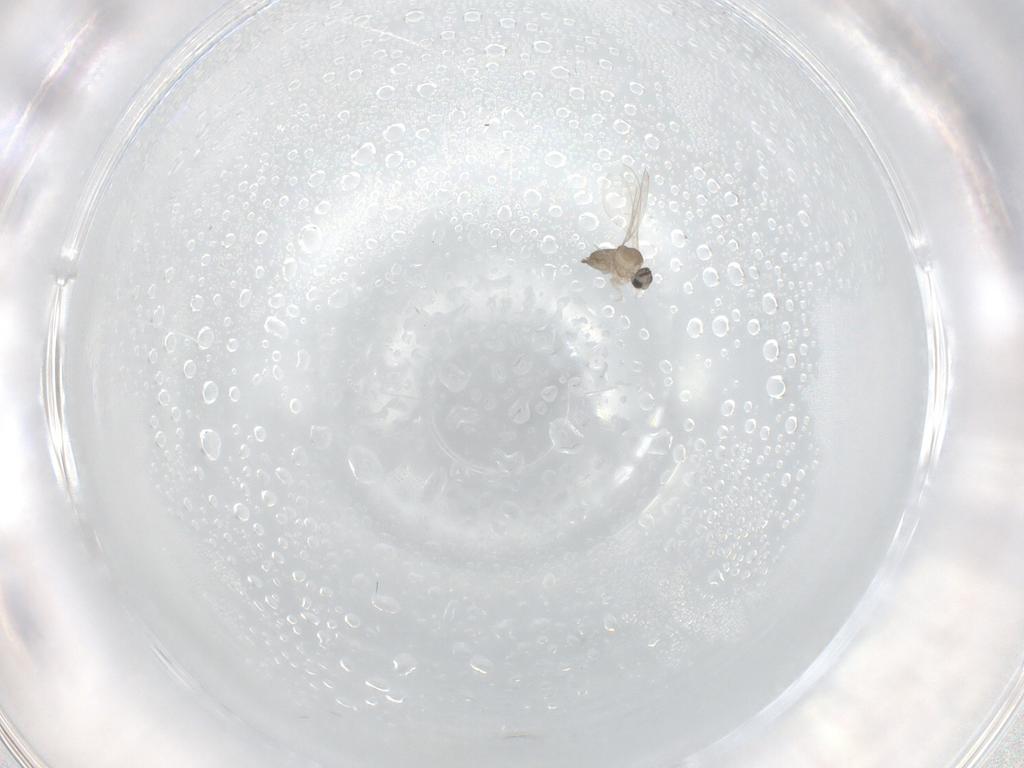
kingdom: Animalia
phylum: Arthropoda
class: Insecta
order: Diptera
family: Cecidomyiidae
